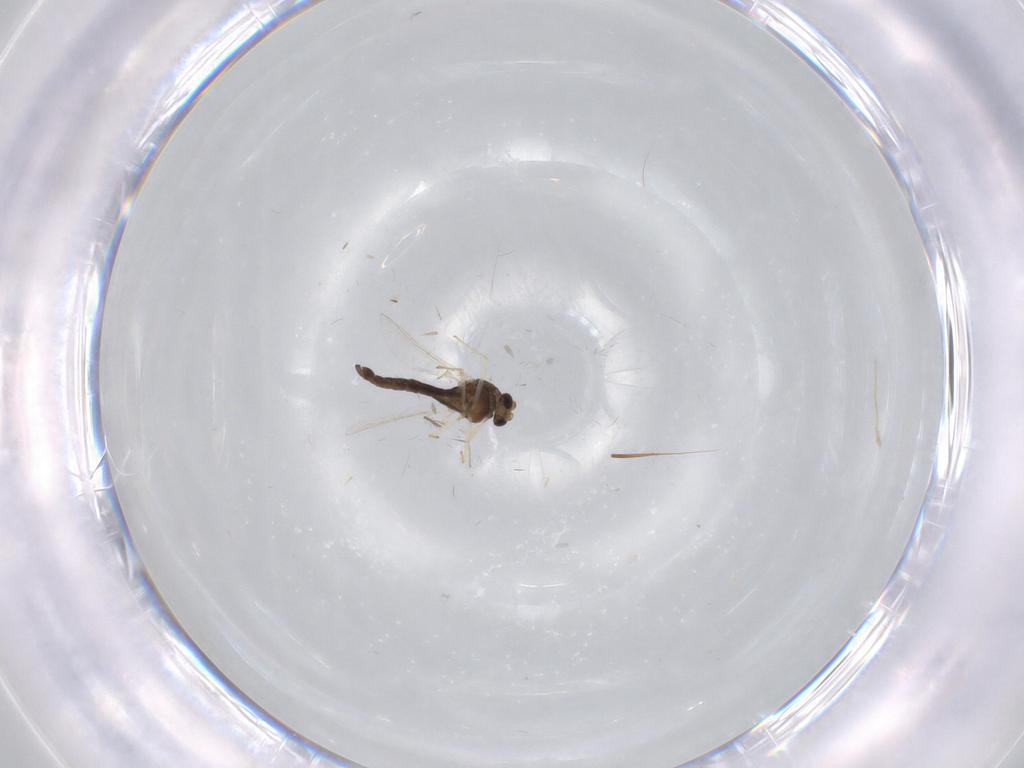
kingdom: Animalia
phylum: Arthropoda
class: Insecta
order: Diptera
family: Chironomidae
